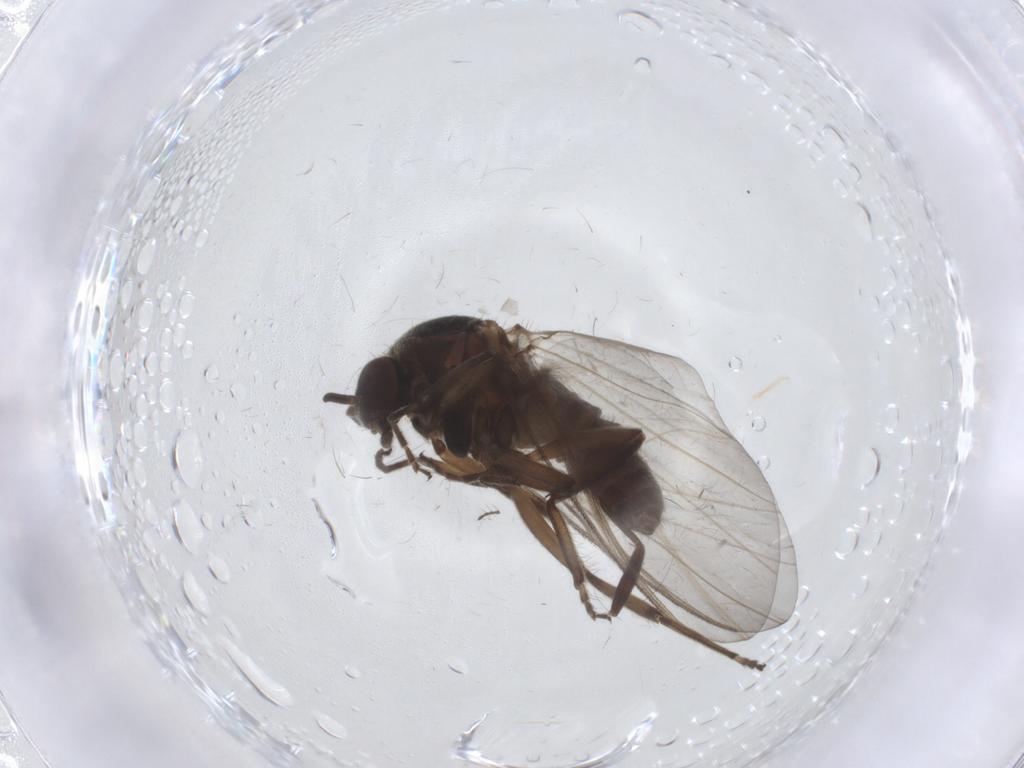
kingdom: Animalia
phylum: Arthropoda
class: Insecta
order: Diptera
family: Simuliidae
